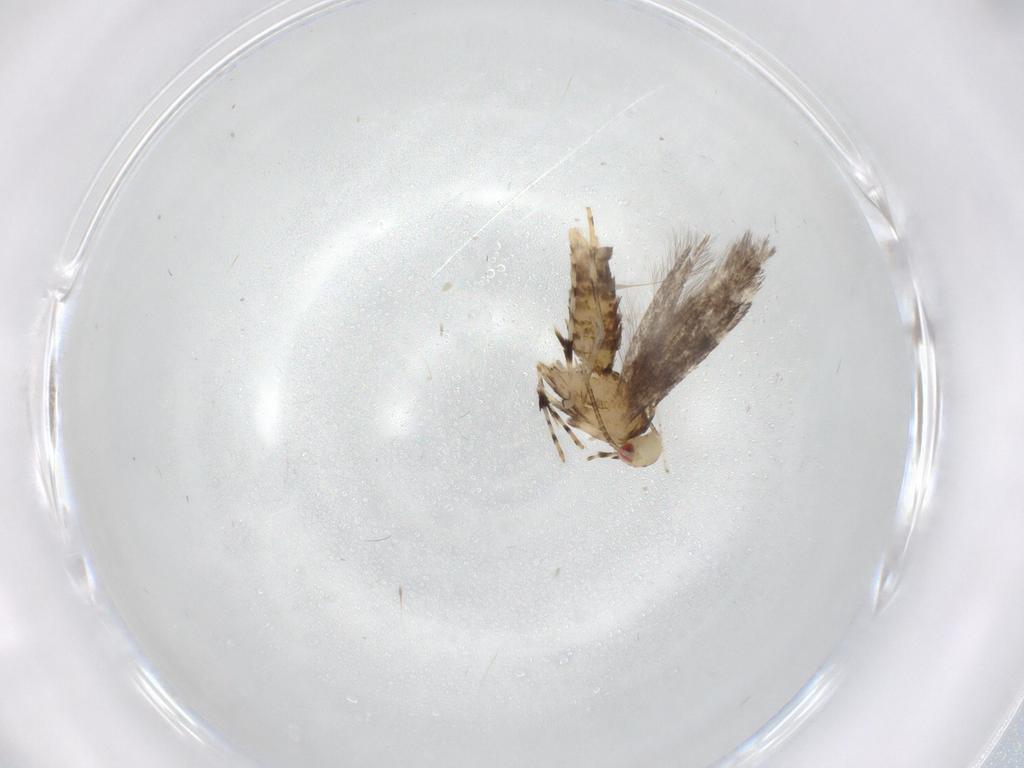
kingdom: Animalia
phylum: Arthropoda
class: Insecta
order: Lepidoptera
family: Gracillariidae
